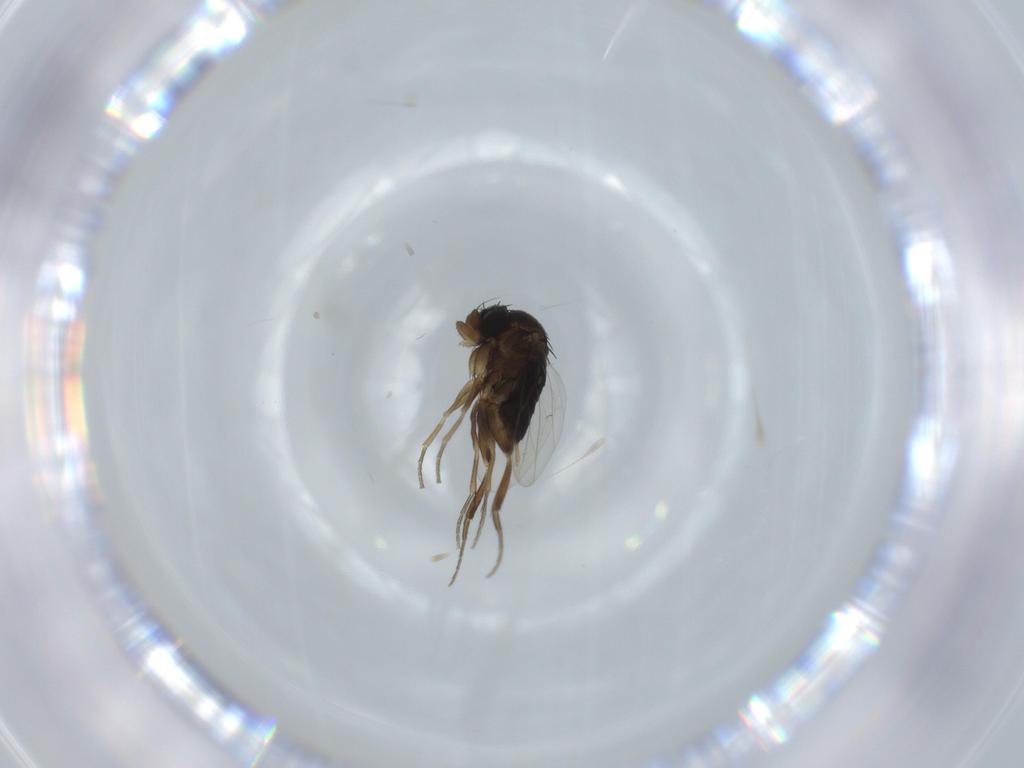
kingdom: Animalia
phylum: Arthropoda
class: Insecta
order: Diptera
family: Phoridae
